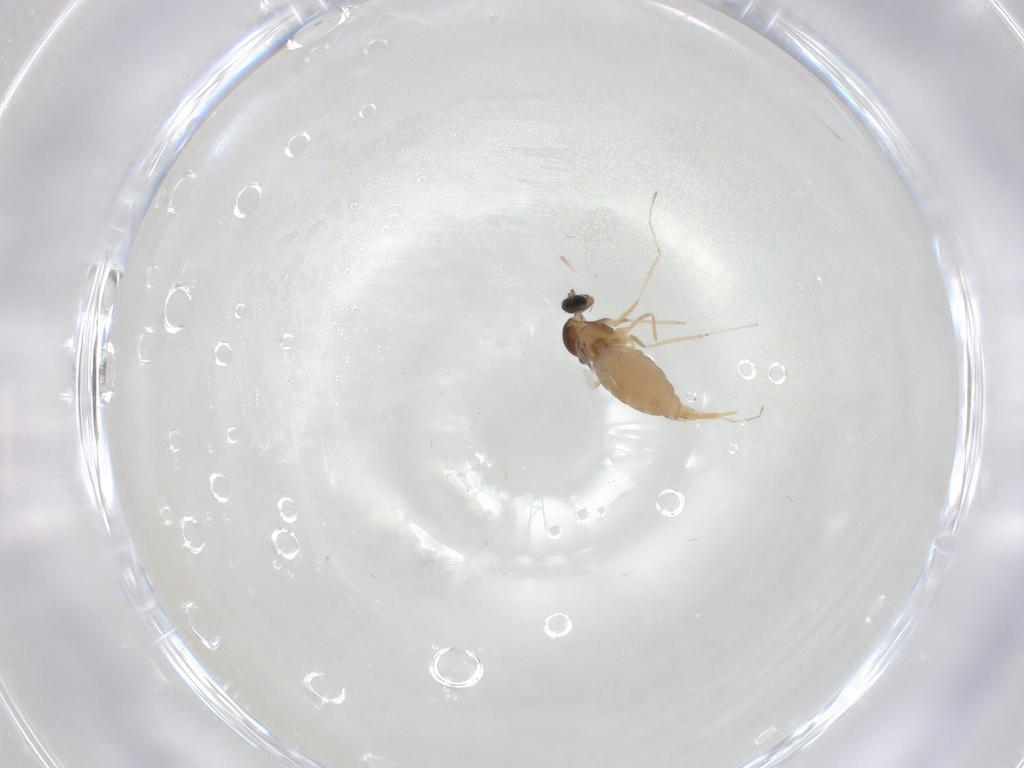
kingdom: Animalia
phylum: Arthropoda
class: Insecta
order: Diptera
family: Cecidomyiidae
